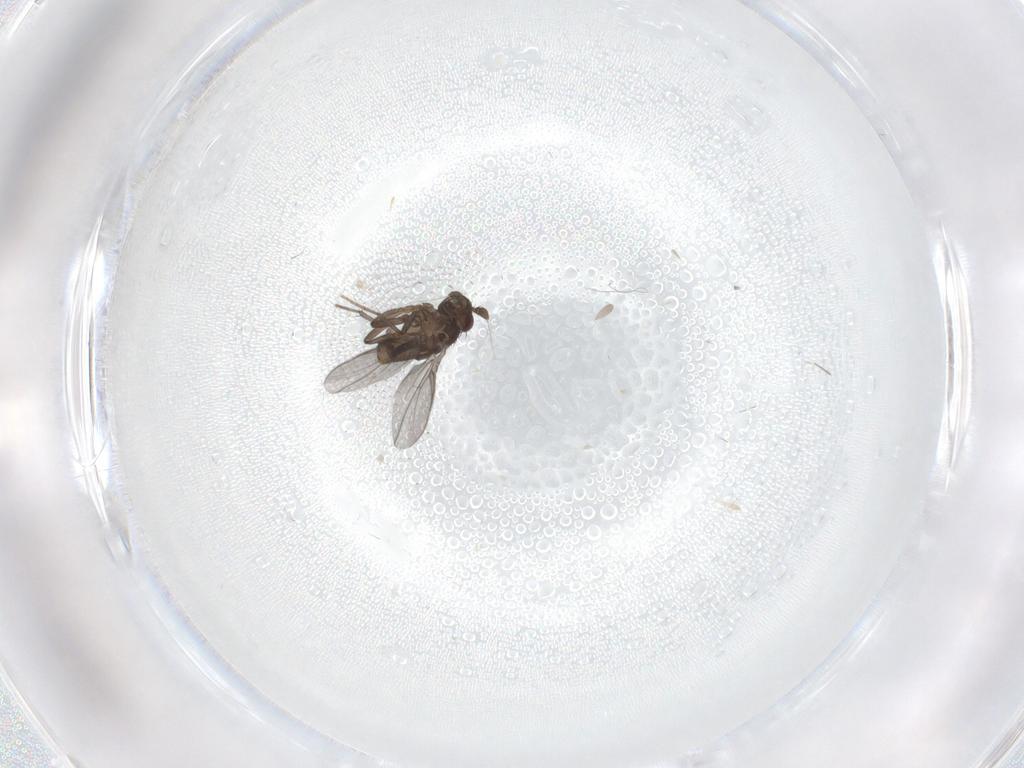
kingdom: Animalia
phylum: Arthropoda
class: Insecta
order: Diptera
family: Sphaeroceridae
